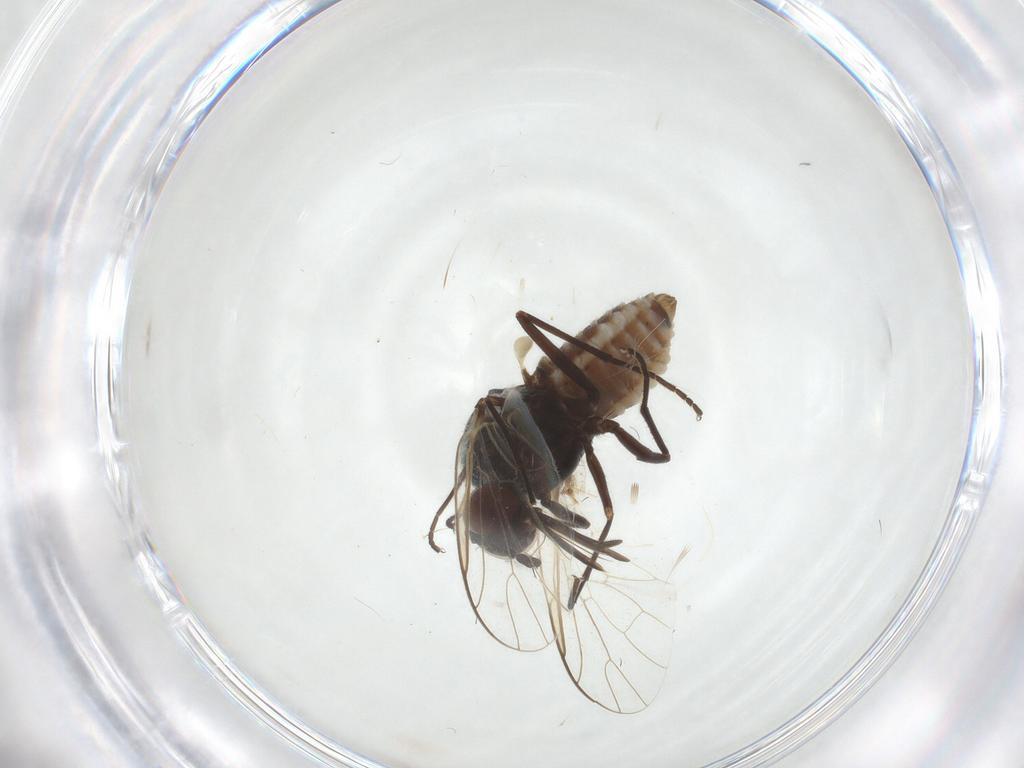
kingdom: Animalia
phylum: Arthropoda
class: Insecta
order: Diptera
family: Bombyliidae
